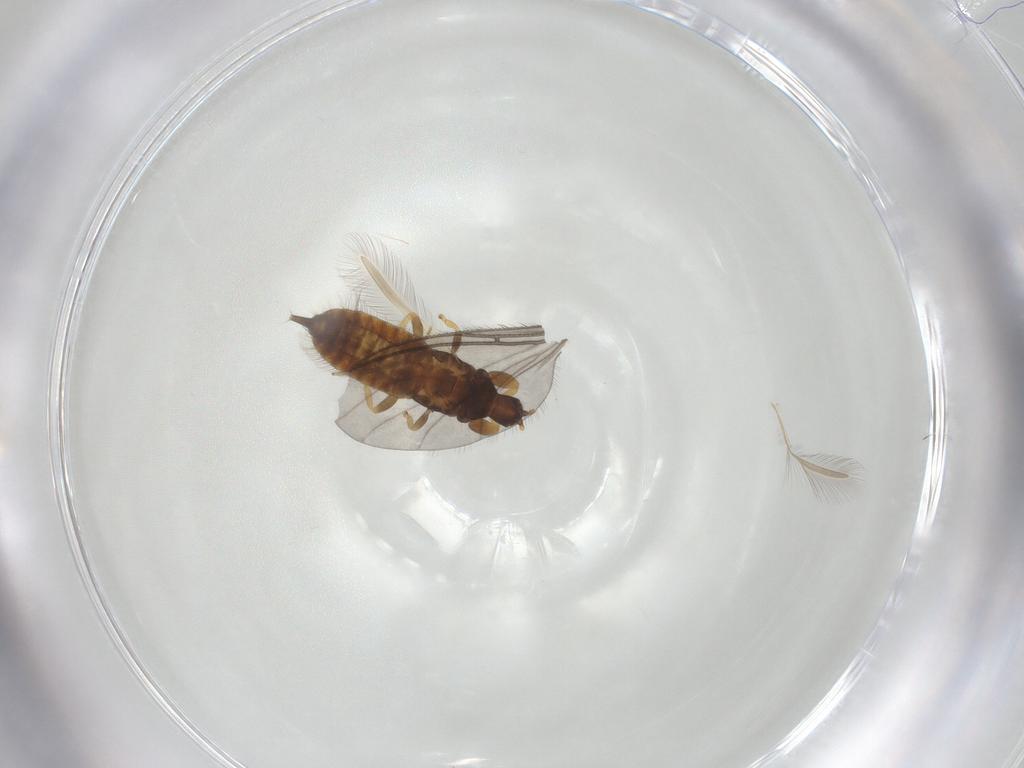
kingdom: Animalia
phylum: Arthropoda
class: Insecta
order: Thysanoptera
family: Phlaeothripidae
